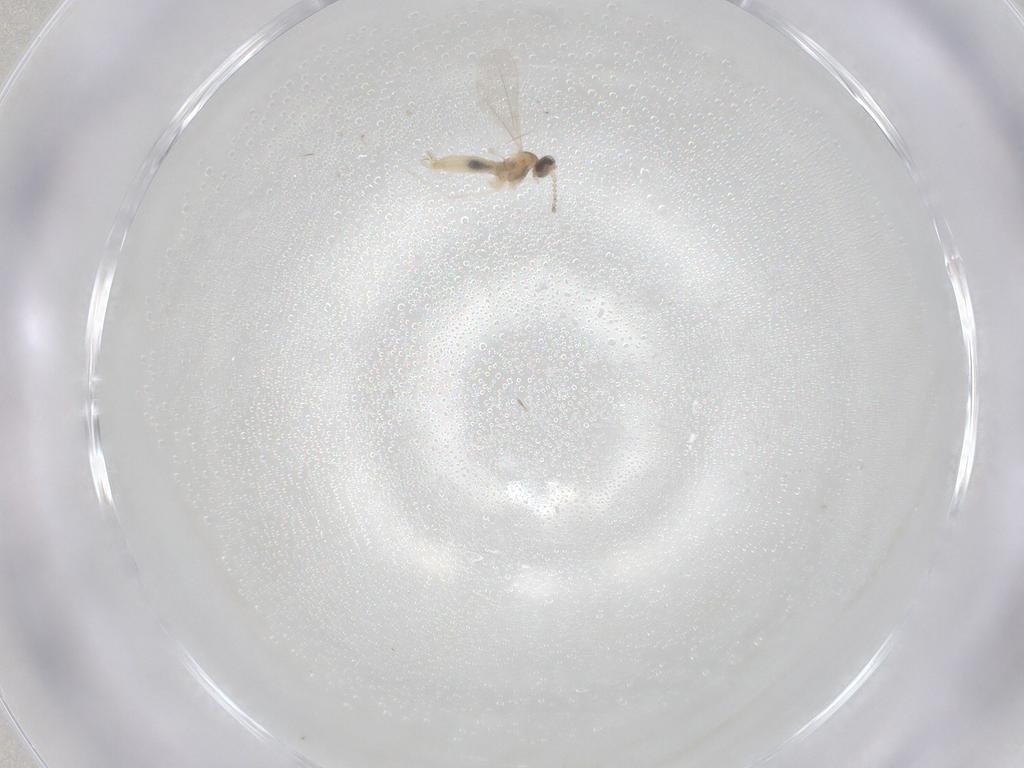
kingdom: Animalia
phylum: Arthropoda
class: Insecta
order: Diptera
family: Cecidomyiidae
